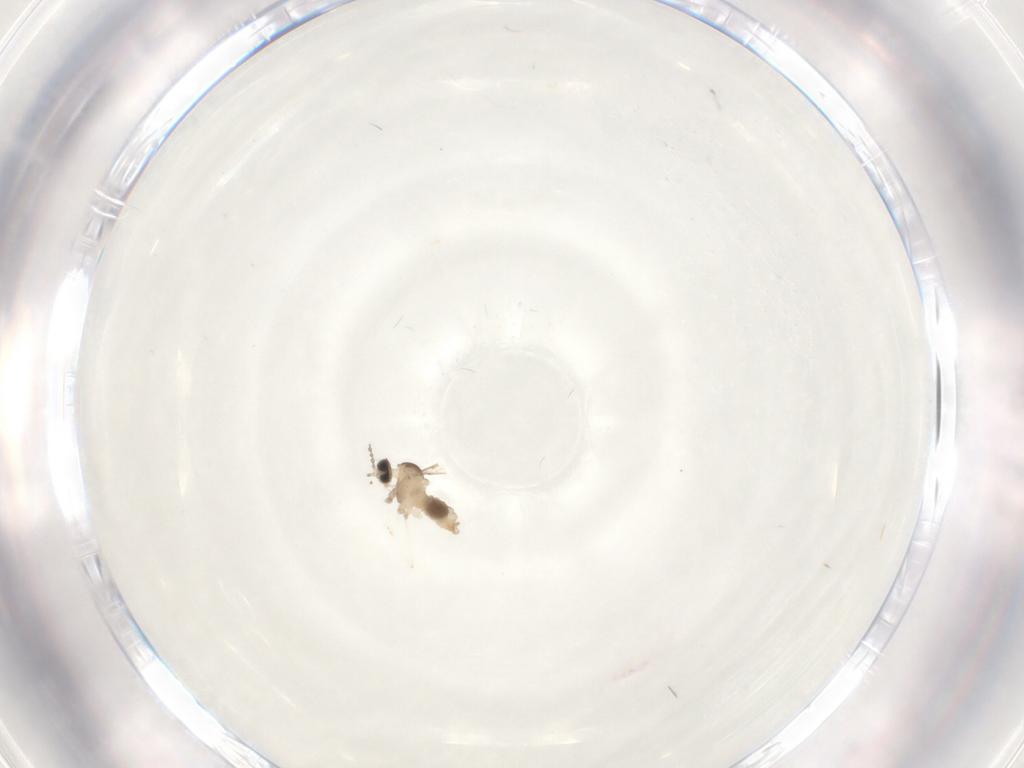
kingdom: Animalia
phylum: Arthropoda
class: Insecta
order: Diptera
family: Cecidomyiidae
